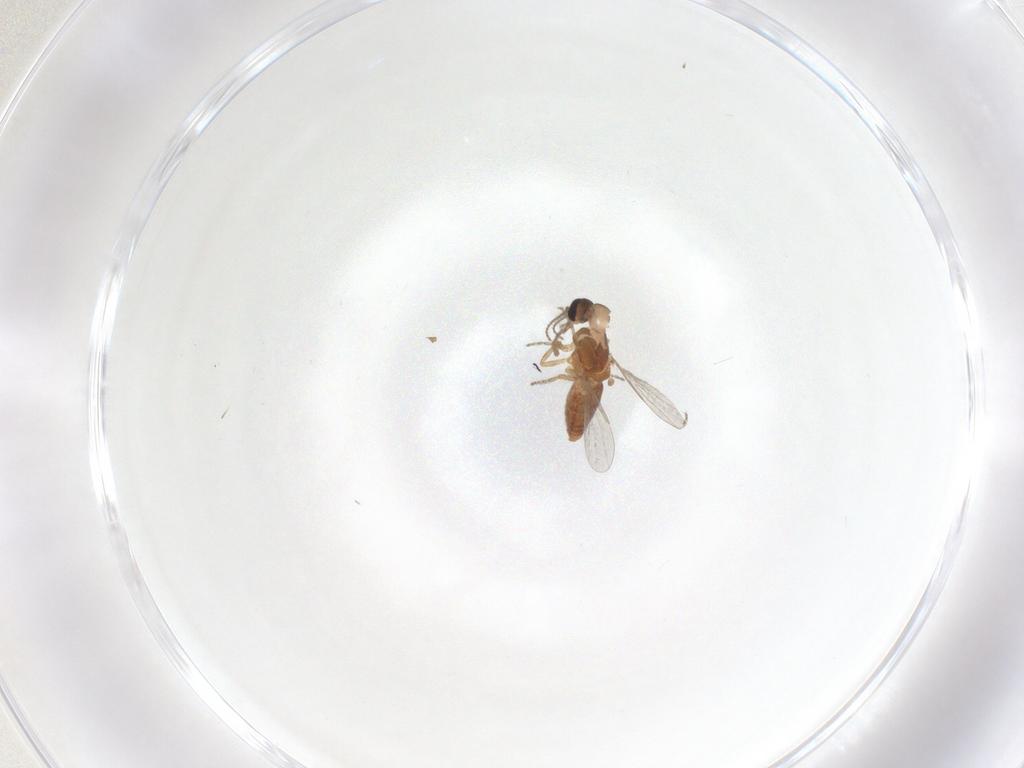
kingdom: Animalia
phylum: Arthropoda
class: Insecta
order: Diptera
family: Ceratopogonidae
